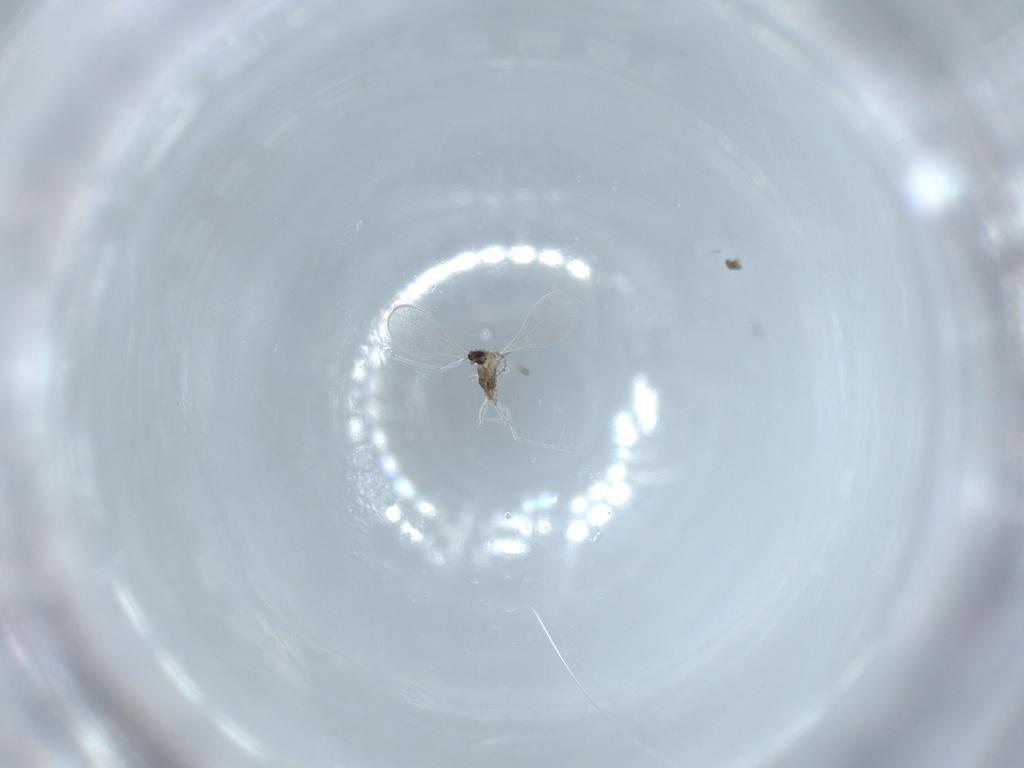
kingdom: Animalia
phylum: Arthropoda
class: Insecta
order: Diptera
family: Cecidomyiidae
